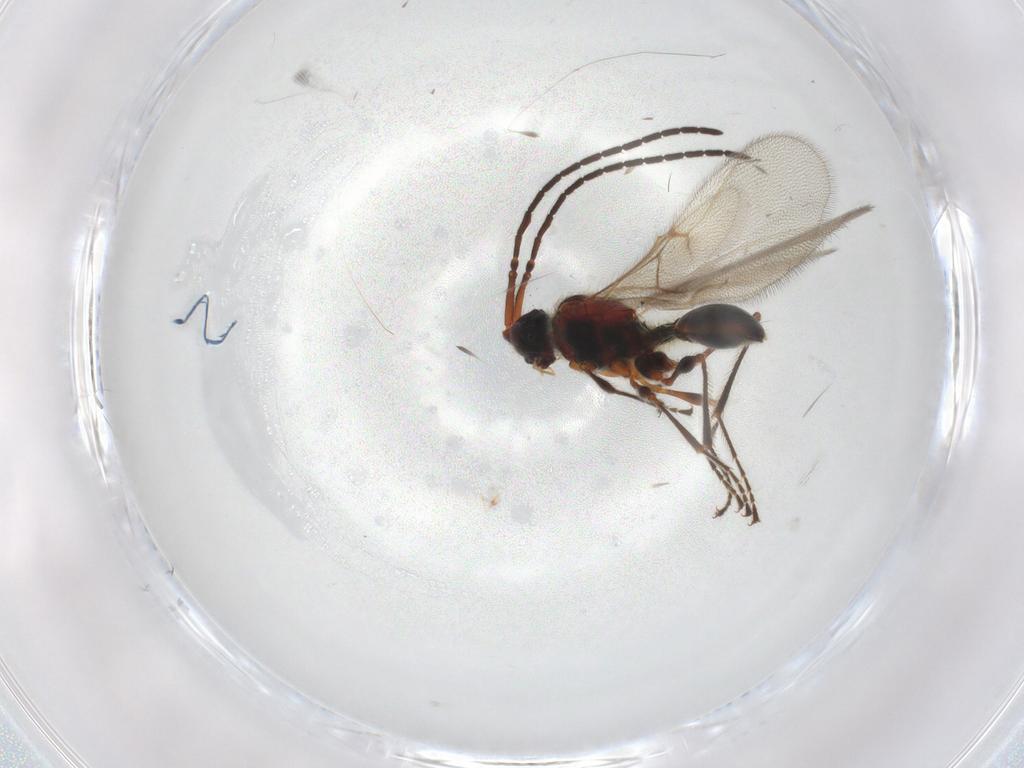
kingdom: Animalia
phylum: Arthropoda
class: Insecta
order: Hymenoptera
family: Diapriidae
